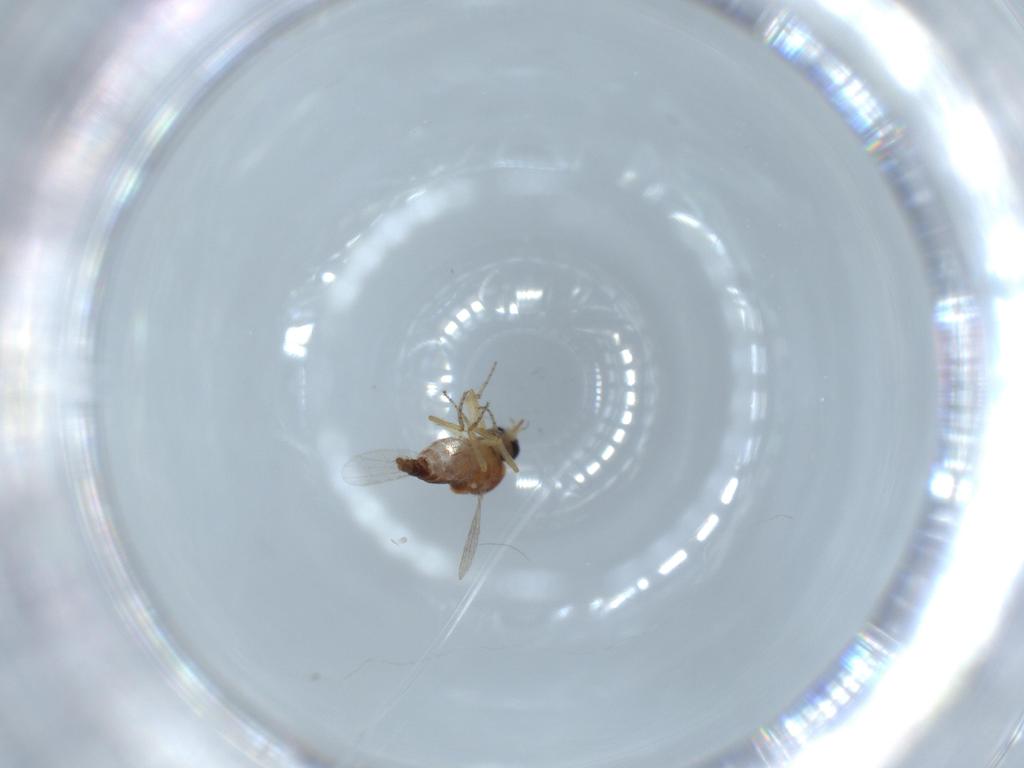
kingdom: Animalia
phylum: Arthropoda
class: Insecta
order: Diptera
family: Ceratopogonidae
